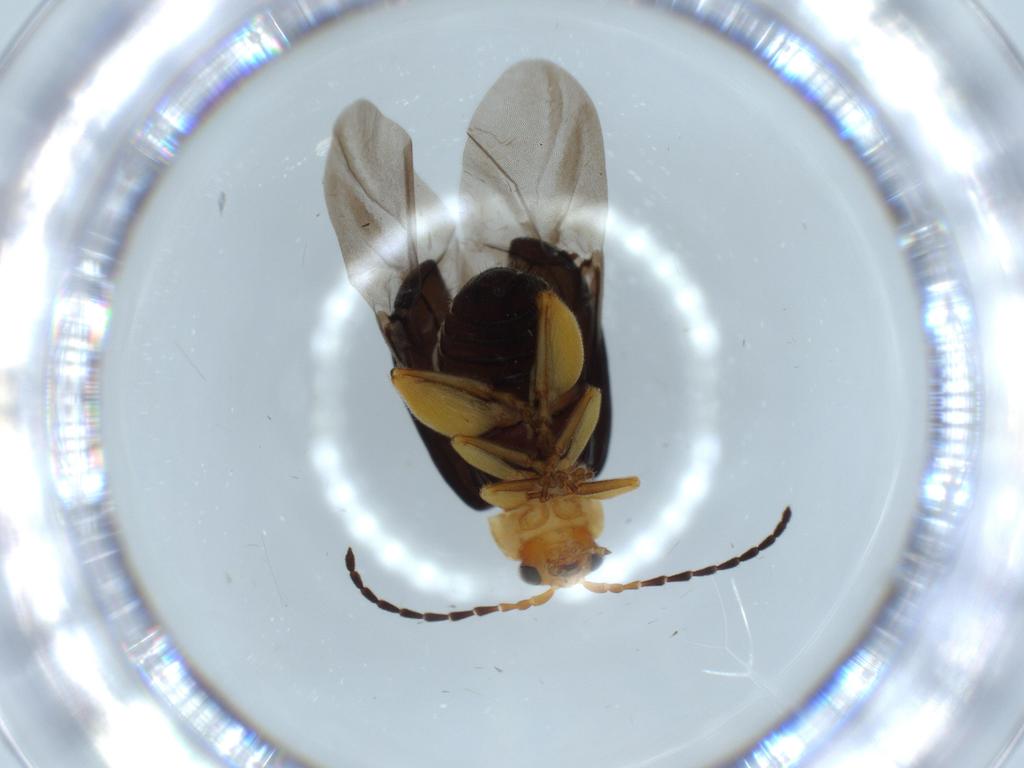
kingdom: Animalia
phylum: Arthropoda
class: Insecta
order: Coleoptera
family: Chrysomelidae
